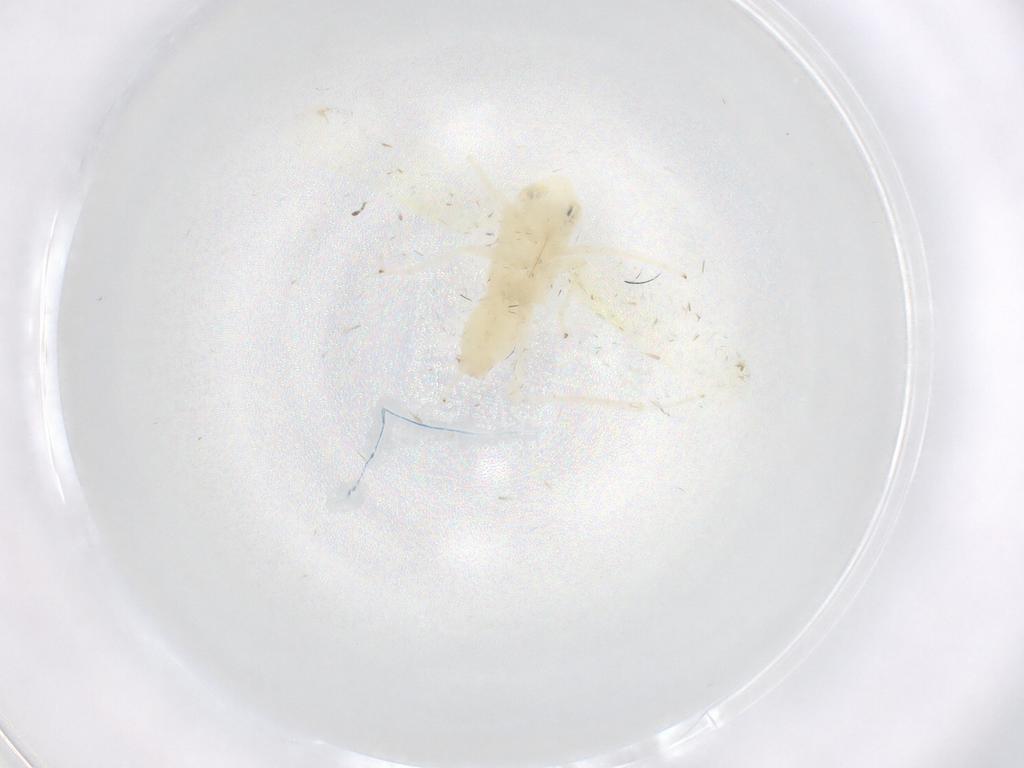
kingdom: Animalia
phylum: Arthropoda
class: Insecta
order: Hemiptera
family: Cicadellidae
